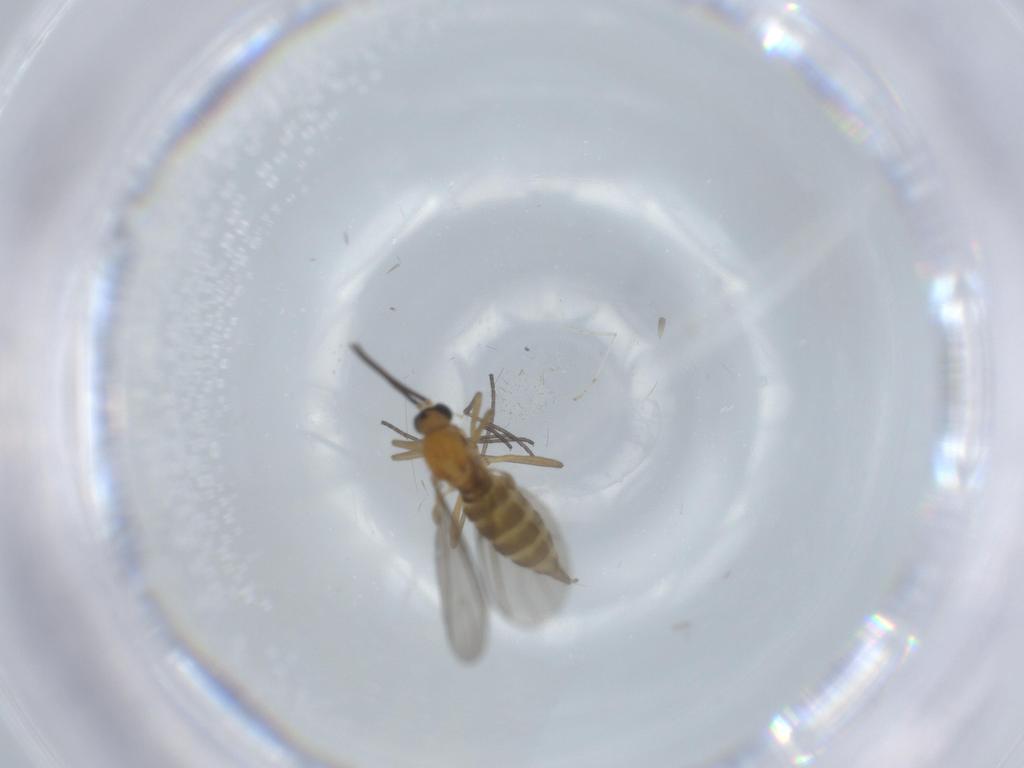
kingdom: Animalia
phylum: Arthropoda
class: Insecta
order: Diptera
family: Cecidomyiidae
